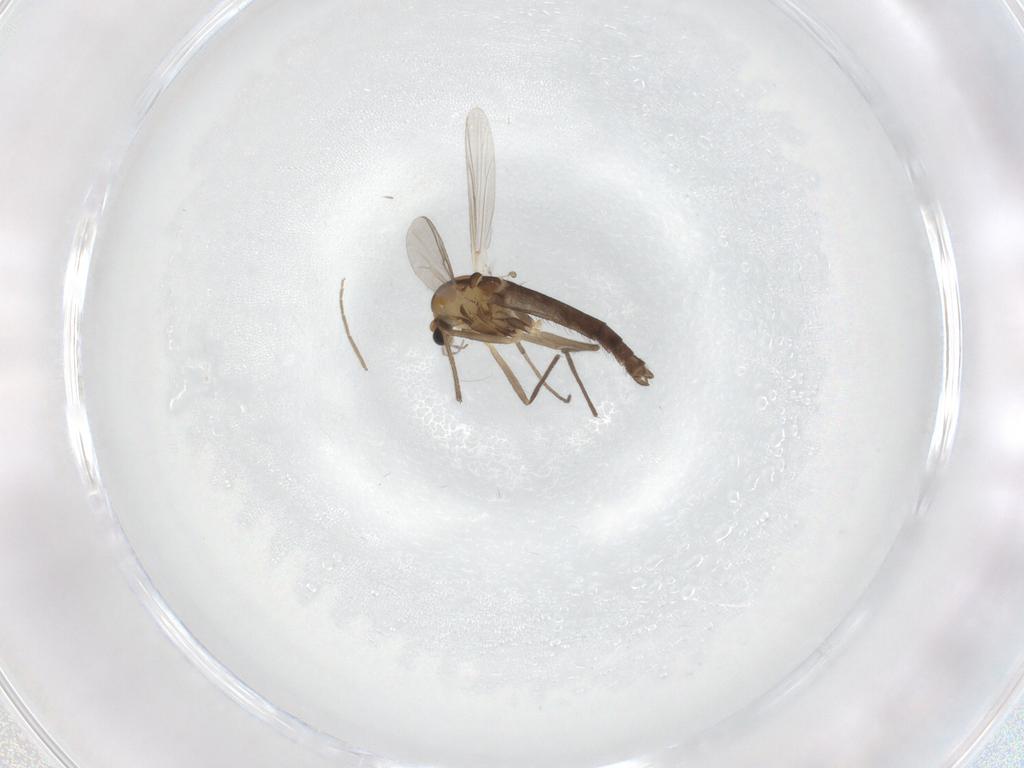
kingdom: Animalia
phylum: Arthropoda
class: Insecta
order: Diptera
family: Chironomidae
